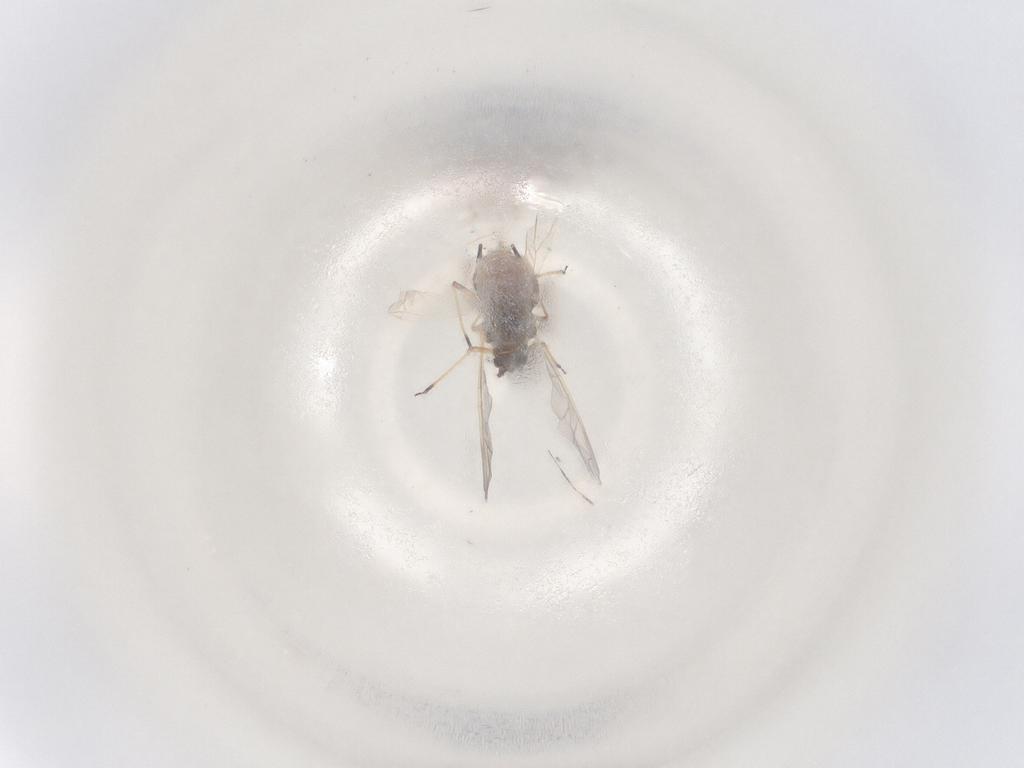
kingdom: Animalia
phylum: Arthropoda
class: Insecta
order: Hemiptera
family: Aphididae
